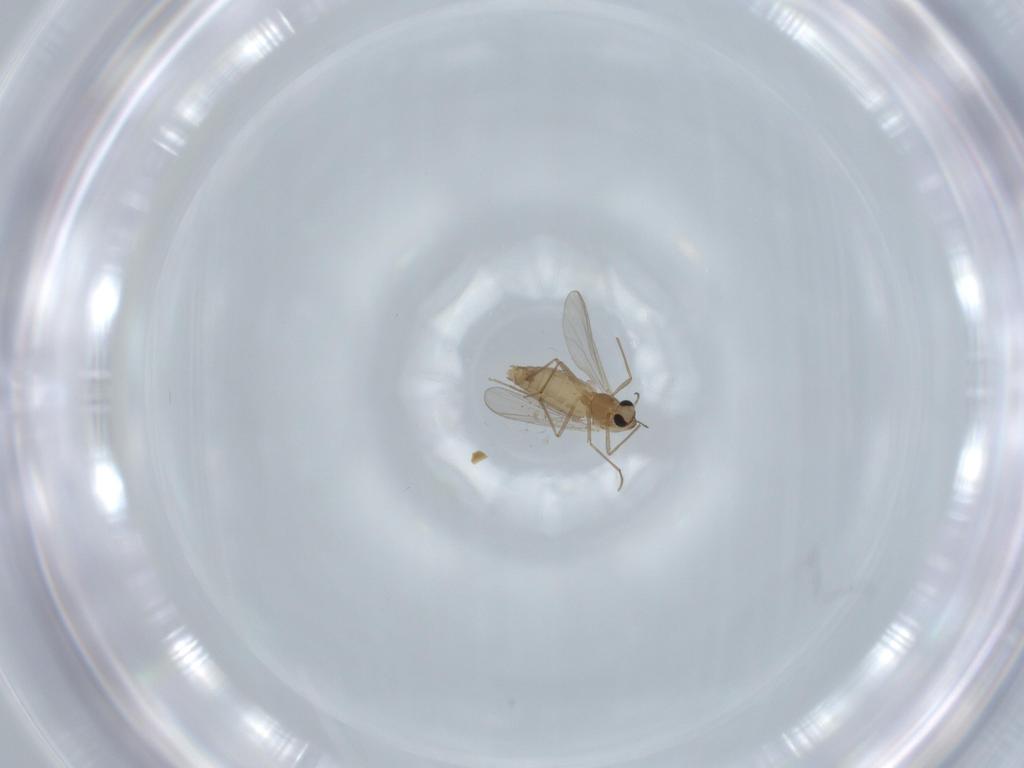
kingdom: Animalia
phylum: Arthropoda
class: Insecta
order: Diptera
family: Chironomidae
